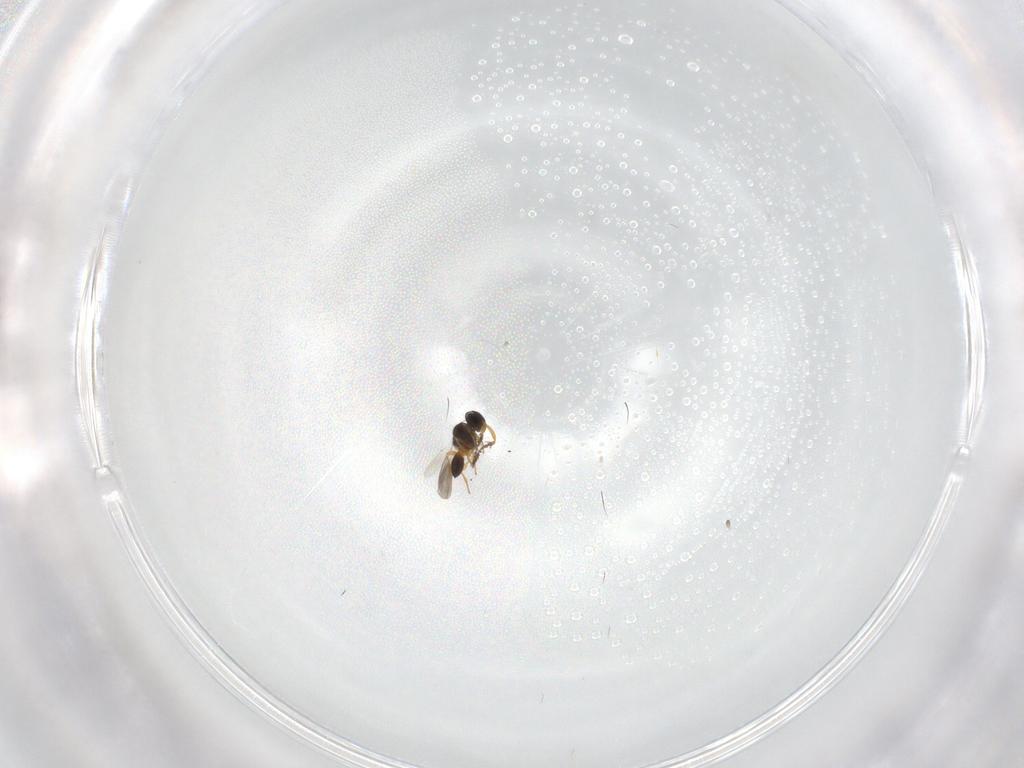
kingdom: Animalia
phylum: Arthropoda
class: Insecta
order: Hymenoptera
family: Platygastridae
